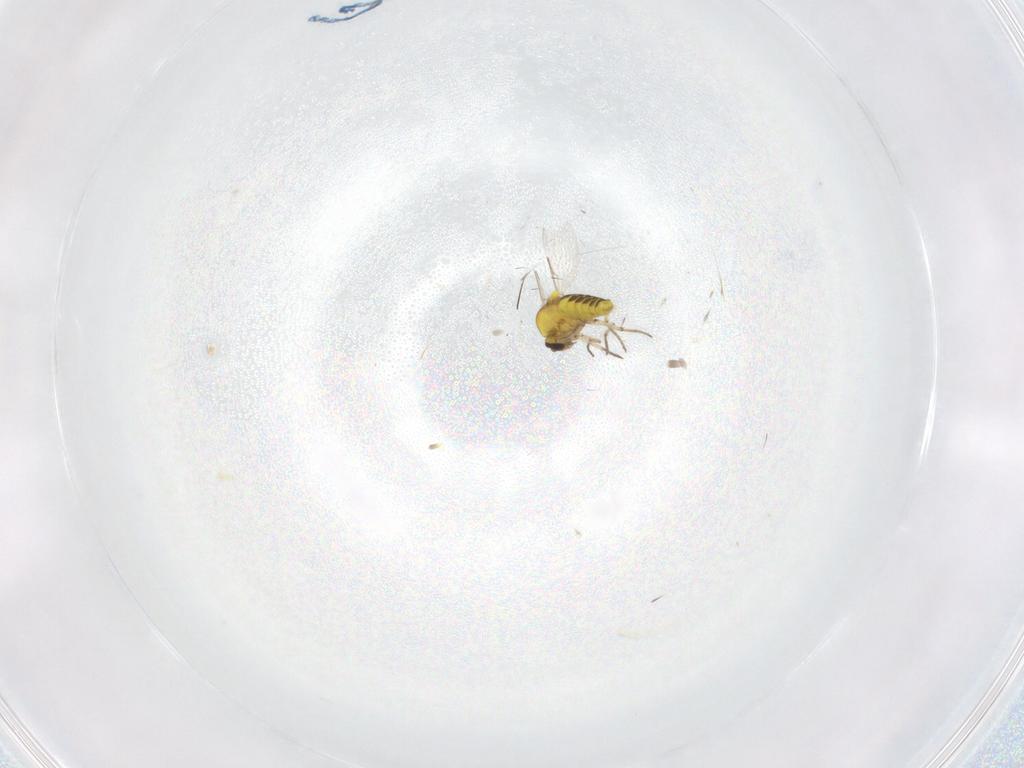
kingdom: Animalia
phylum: Arthropoda
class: Insecta
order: Diptera
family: Ceratopogonidae
